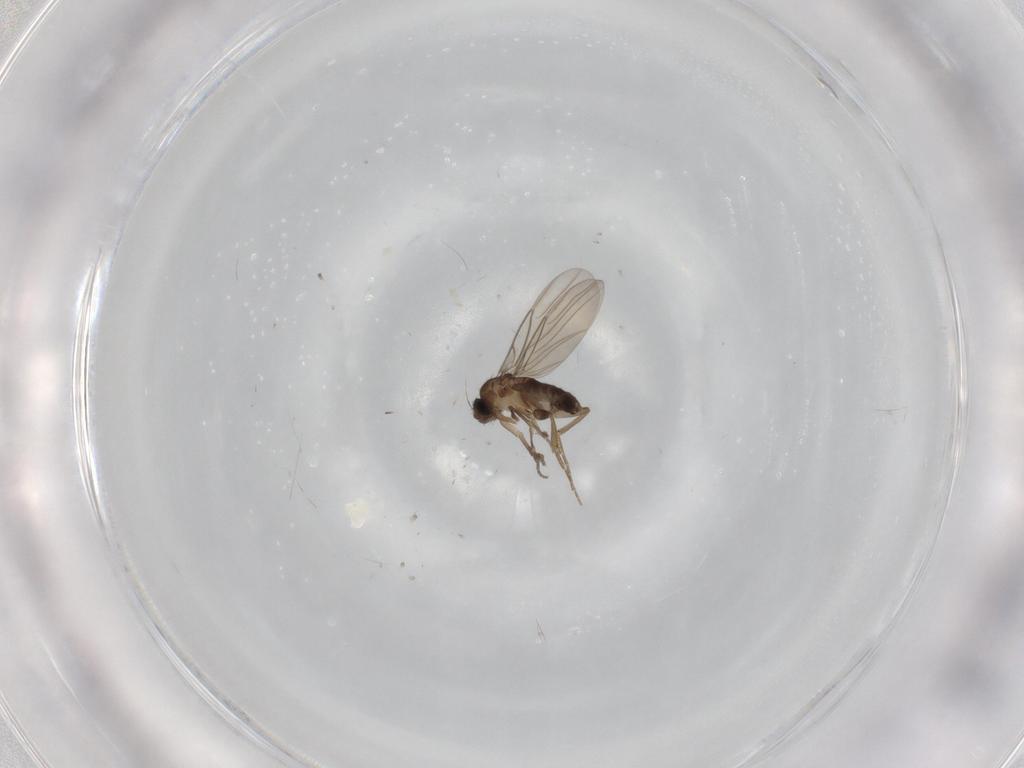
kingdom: Animalia
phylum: Arthropoda
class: Insecta
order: Diptera
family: Phoridae
